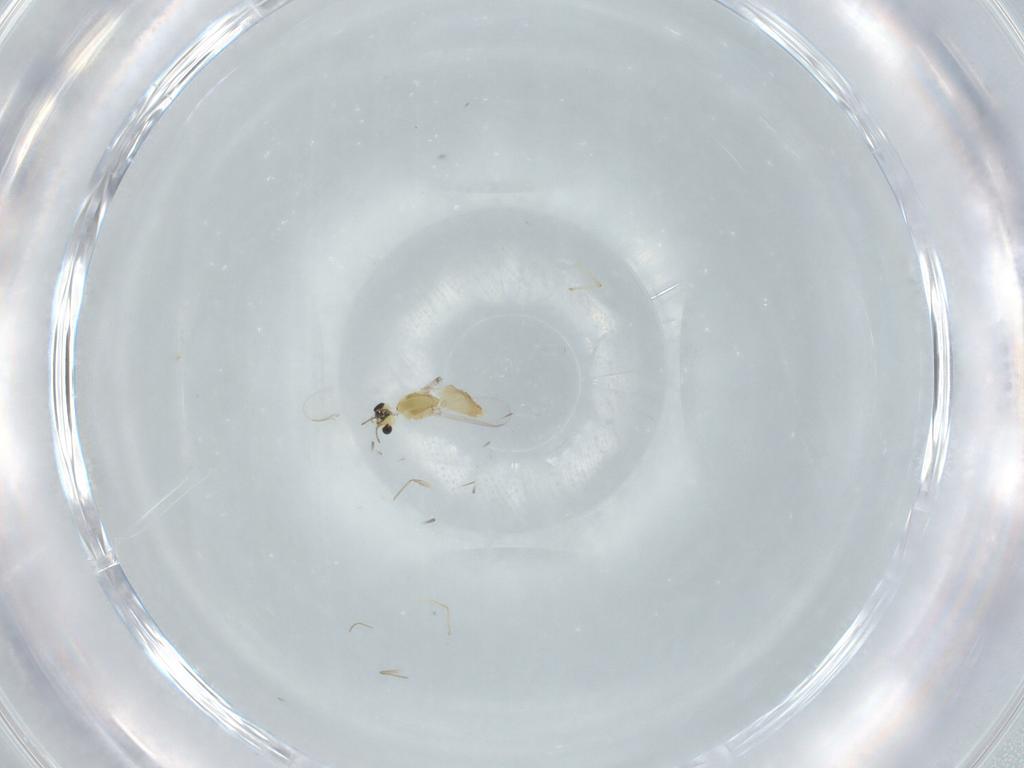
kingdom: Animalia
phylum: Arthropoda
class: Insecta
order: Diptera
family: Chironomidae
